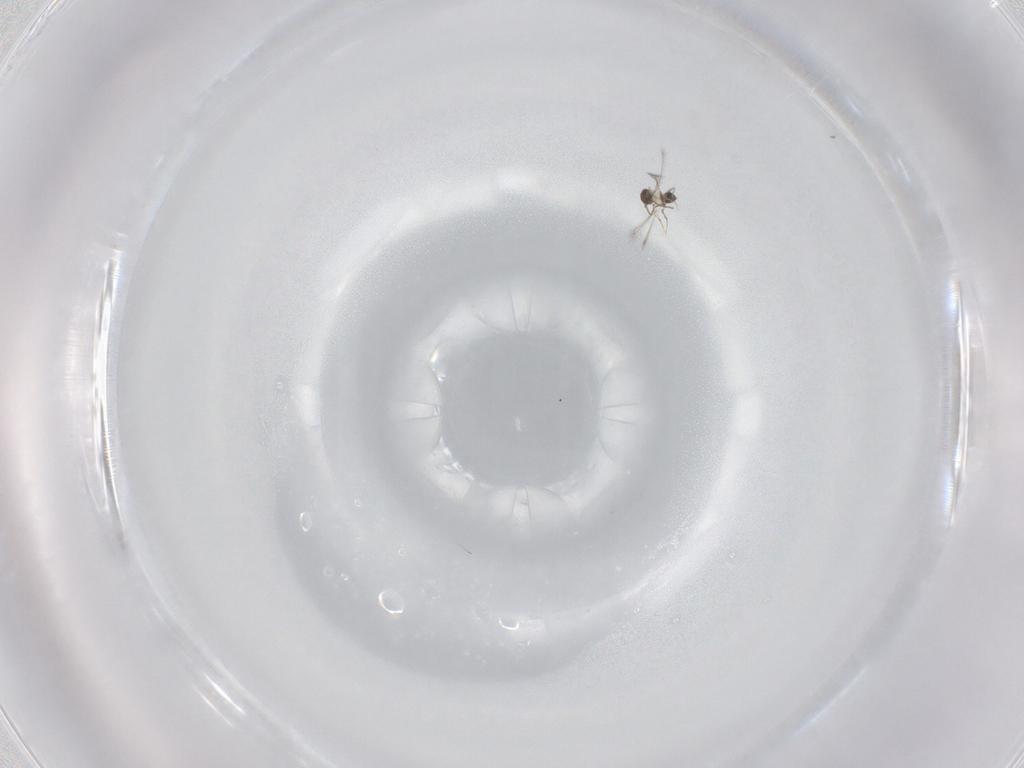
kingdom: Animalia
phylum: Arthropoda
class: Insecta
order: Hymenoptera
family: Mymaridae
